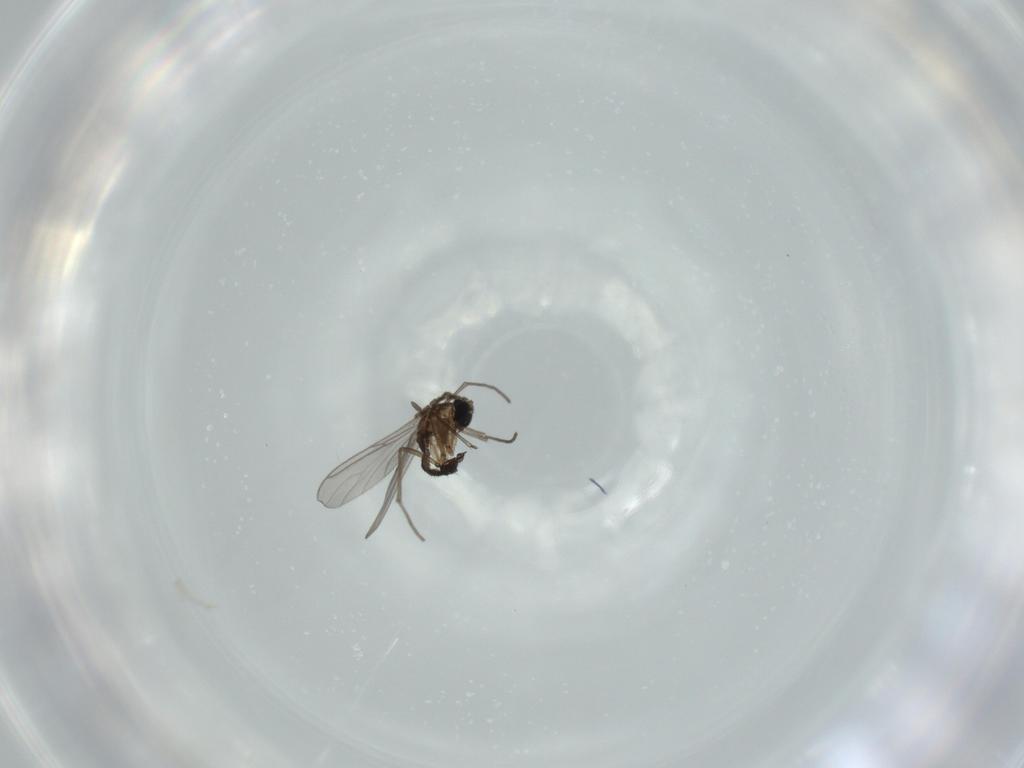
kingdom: Animalia
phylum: Arthropoda
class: Insecta
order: Diptera
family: Sciaridae
